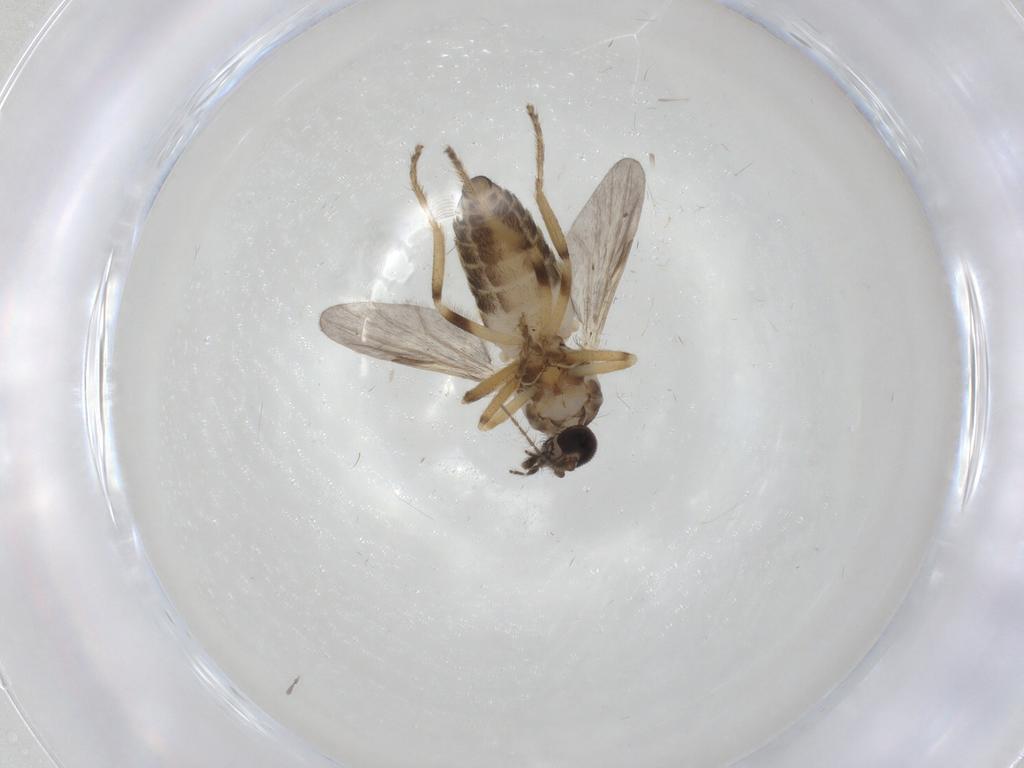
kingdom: Animalia
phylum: Arthropoda
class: Insecta
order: Diptera
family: Ceratopogonidae
